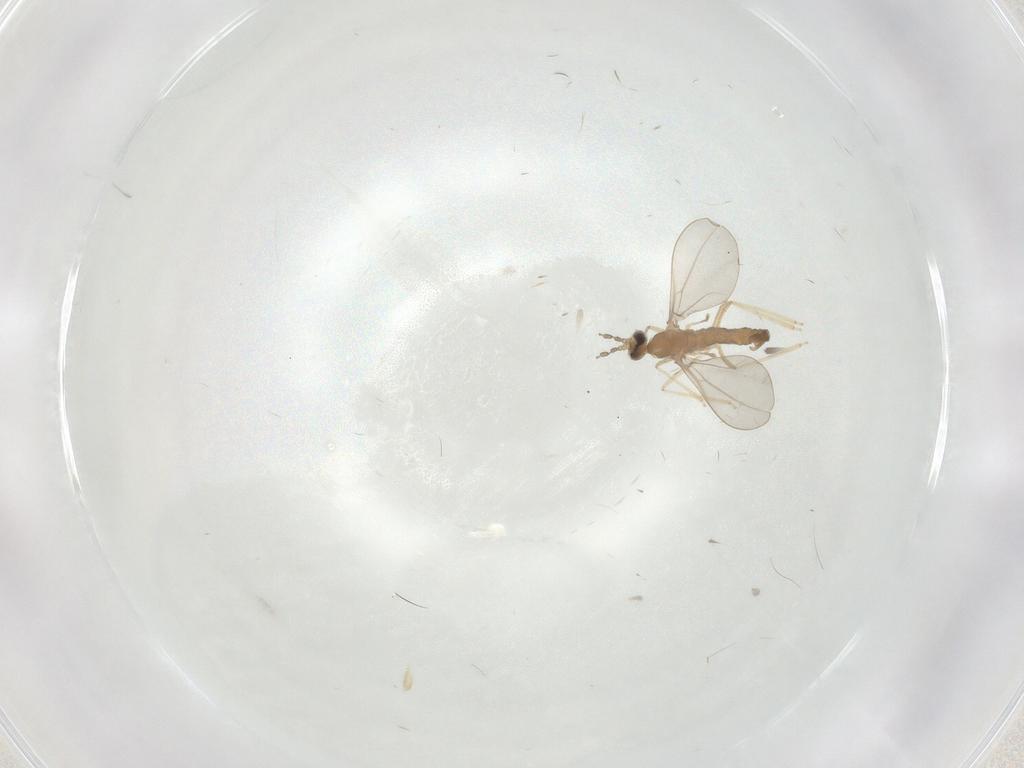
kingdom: Animalia
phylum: Arthropoda
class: Insecta
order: Diptera
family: Cecidomyiidae
